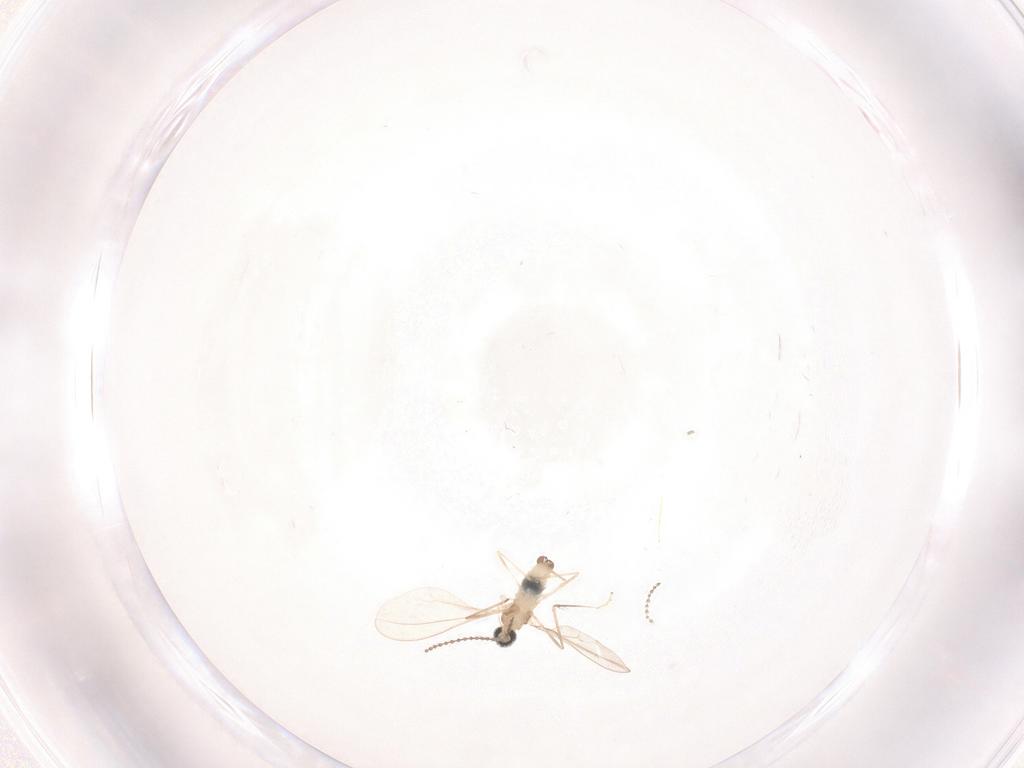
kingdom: Animalia
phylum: Arthropoda
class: Insecta
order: Diptera
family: Cecidomyiidae
